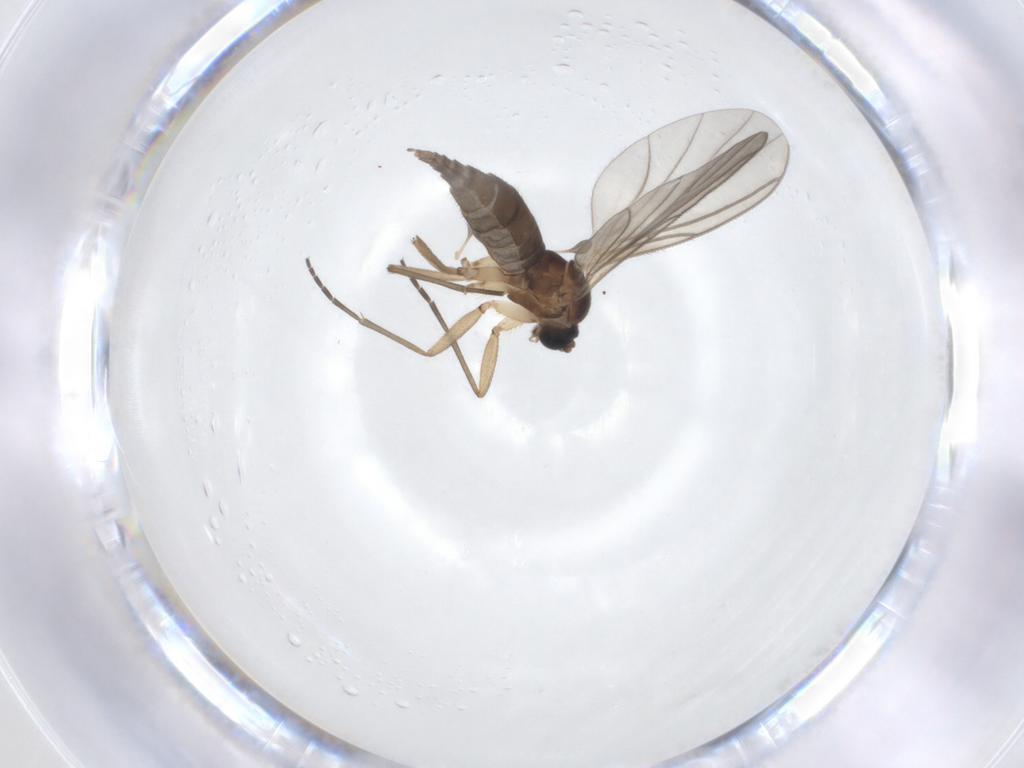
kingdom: Animalia
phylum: Arthropoda
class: Insecta
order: Diptera
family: Sciaridae
